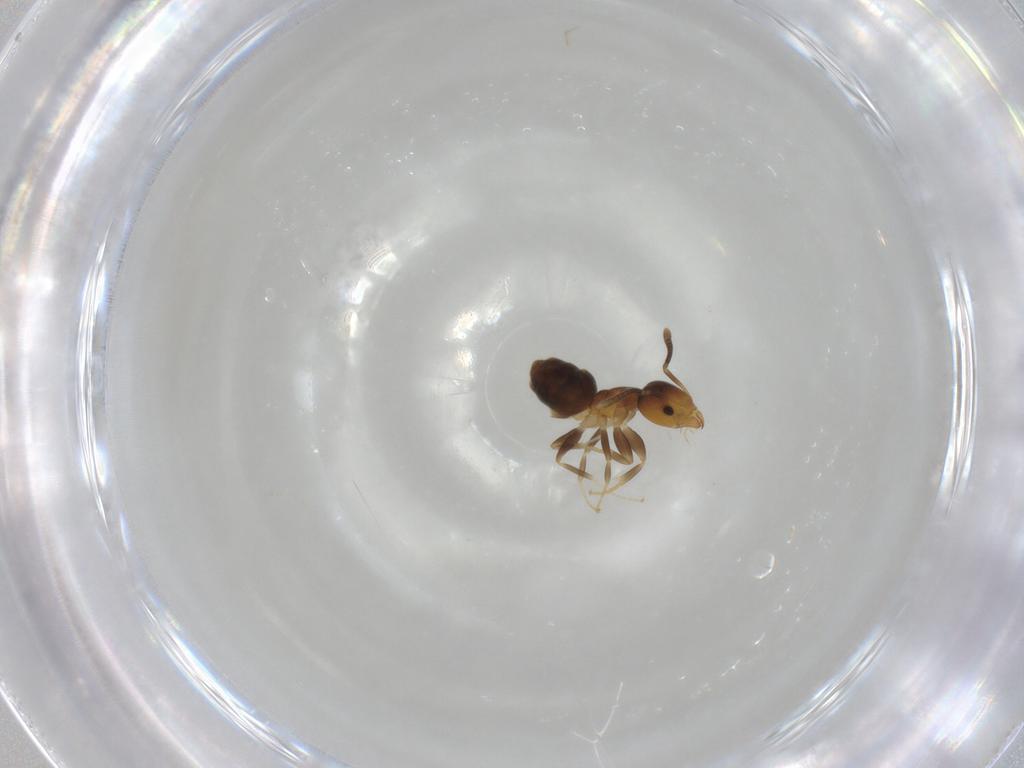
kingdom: Animalia
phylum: Arthropoda
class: Insecta
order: Hymenoptera
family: Formicidae
